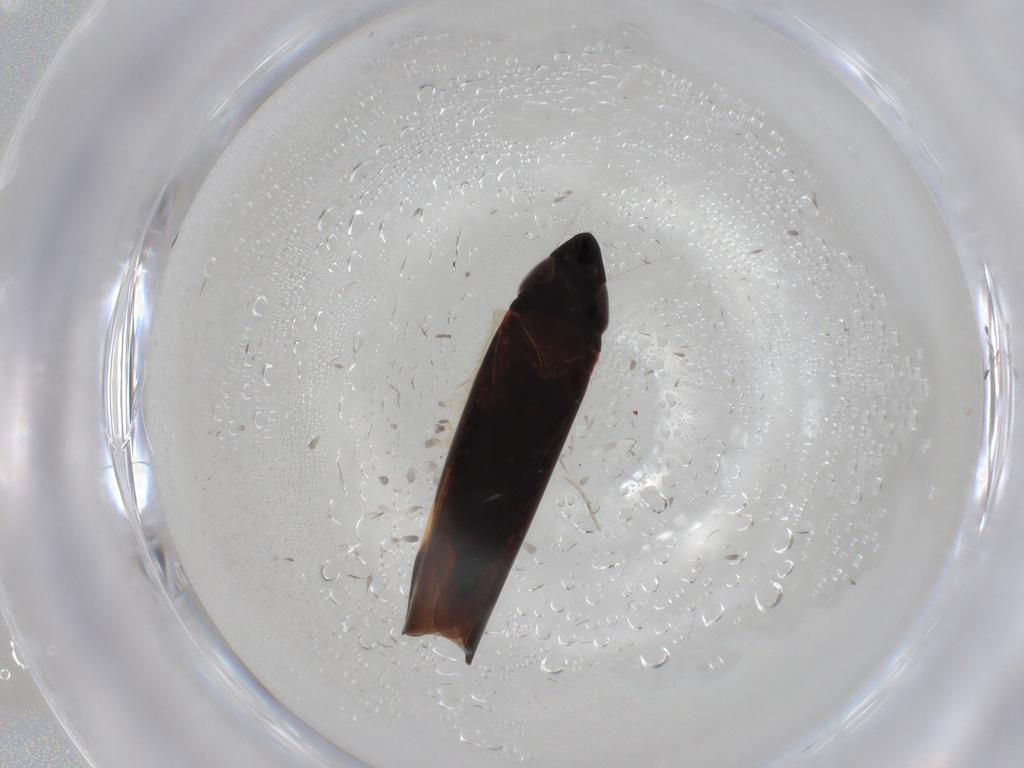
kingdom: Animalia
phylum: Arthropoda
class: Insecta
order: Hemiptera
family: Cicadellidae
